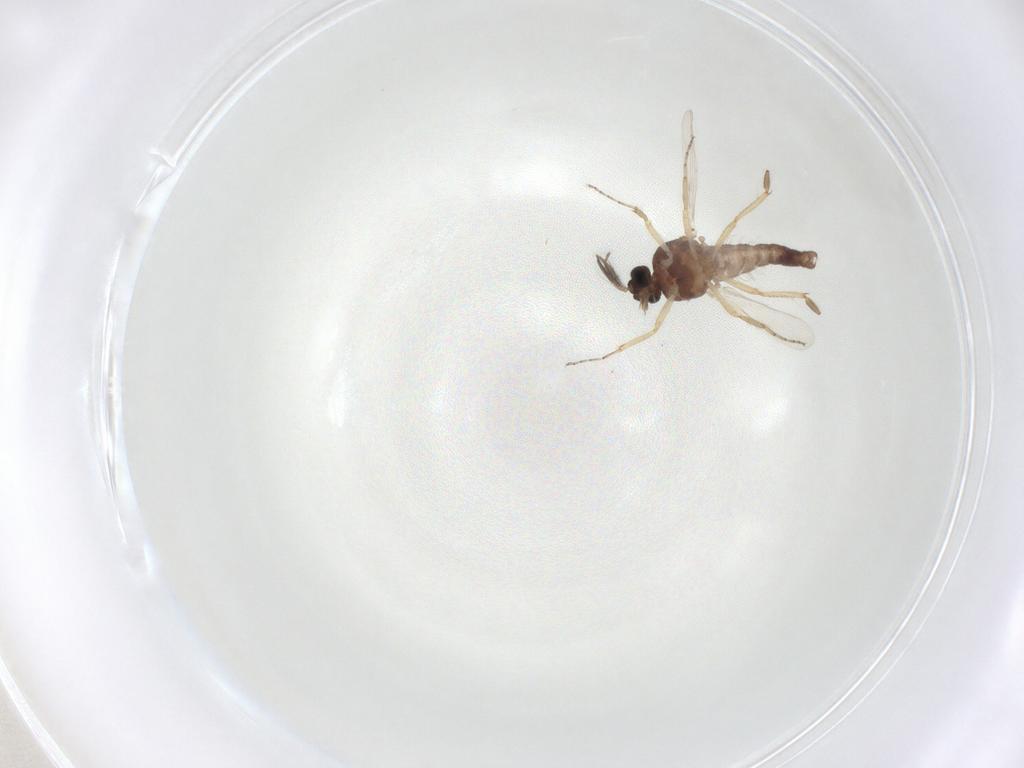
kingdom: Animalia
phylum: Arthropoda
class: Insecta
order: Diptera
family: Ceratopogonidae
